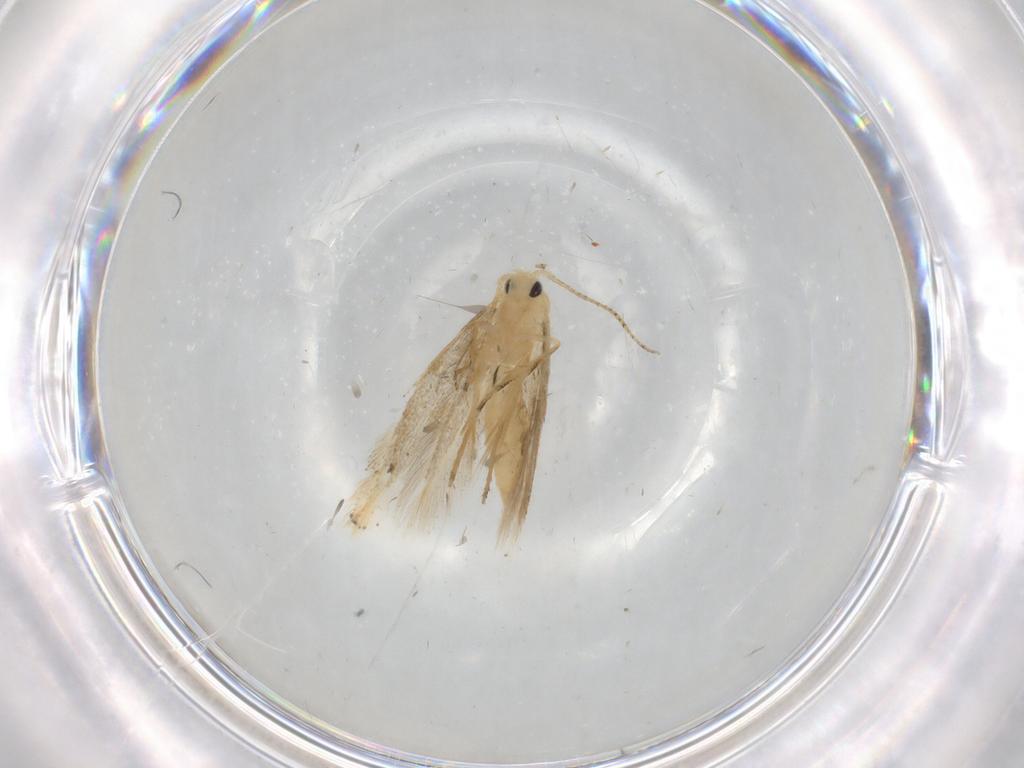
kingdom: Animalia
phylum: Arthropoda
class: Insecta
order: Lepidoptera
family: Bucculatricidae
